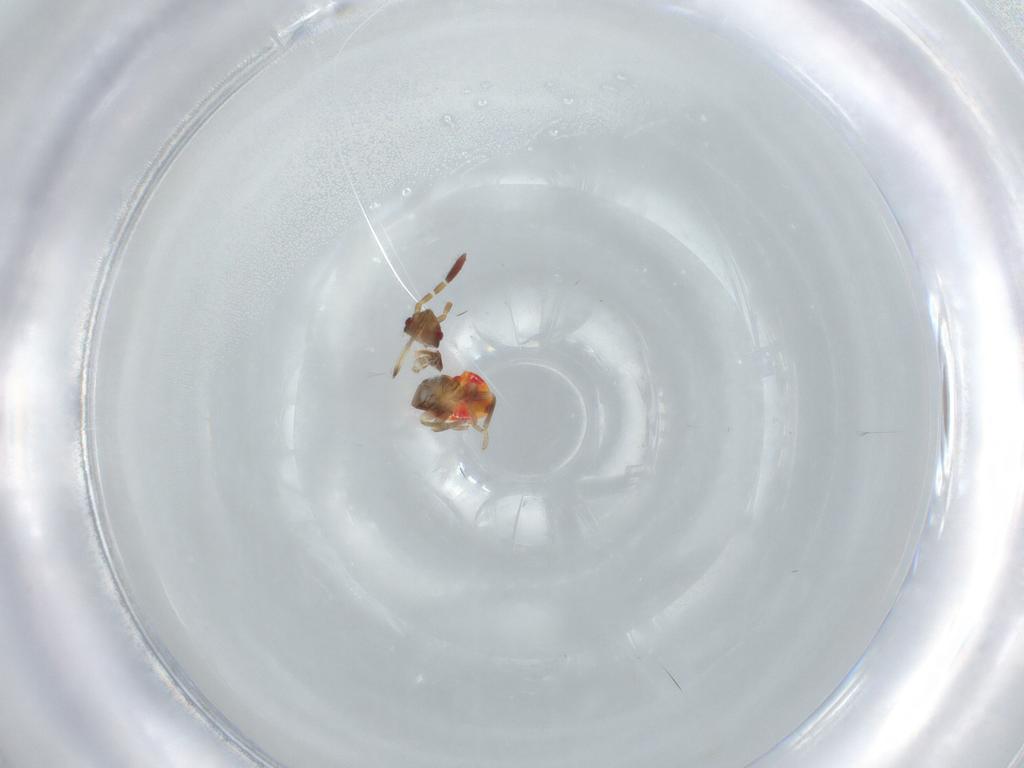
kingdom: Animalia
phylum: Arthropoda
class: Insecta
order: Hemiptera
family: Rhyparochromidae
